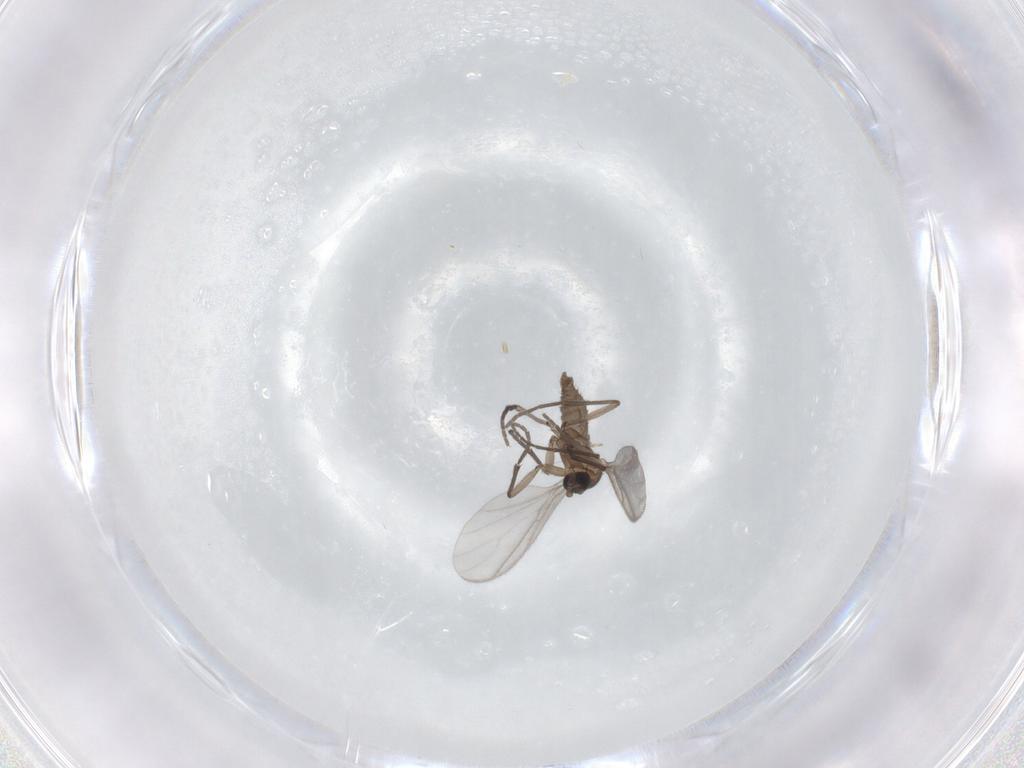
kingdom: Animalia
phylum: Arthropoda
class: Insecta
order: Diptera
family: Sciaridae
